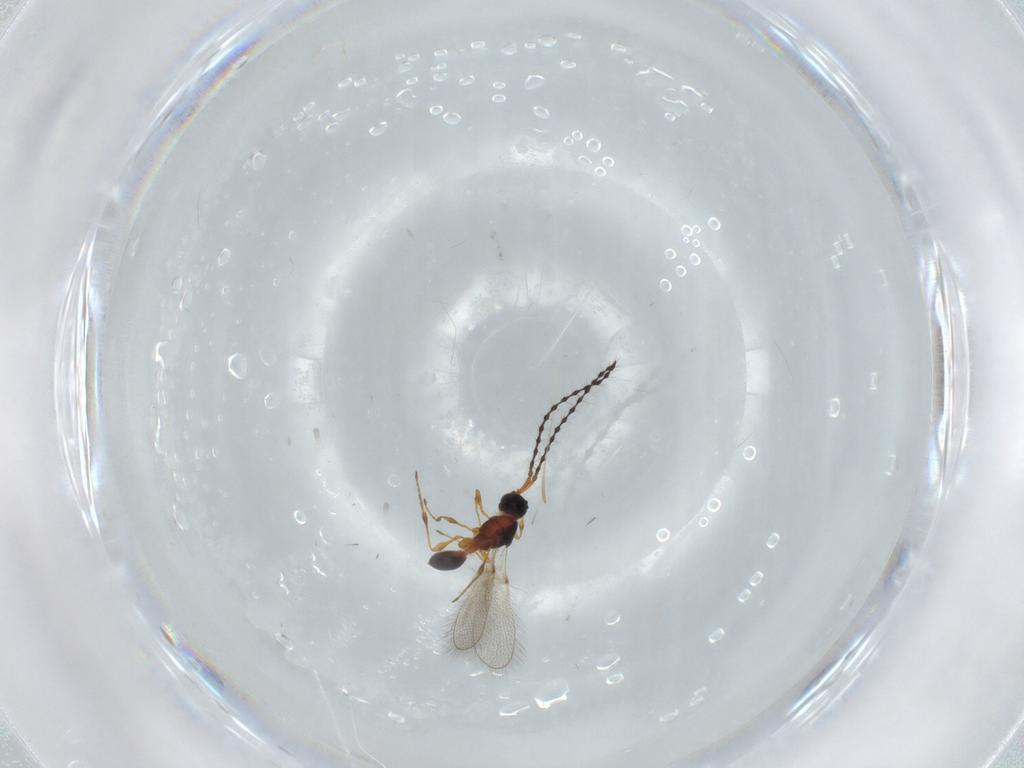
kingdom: Animalia
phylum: Arthropoda
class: Insecta
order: Hymenoptera
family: Diapriidae
